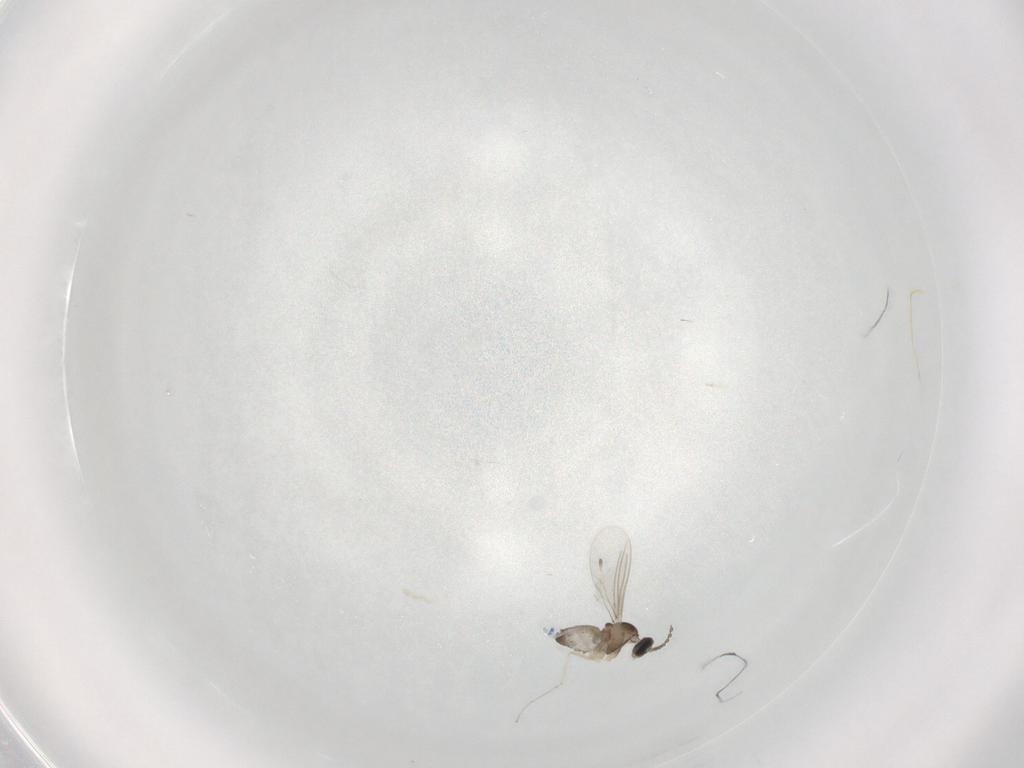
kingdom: Animalia
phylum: Arthropoda
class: Insecta
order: Diptera
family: Cecidomyiidae
